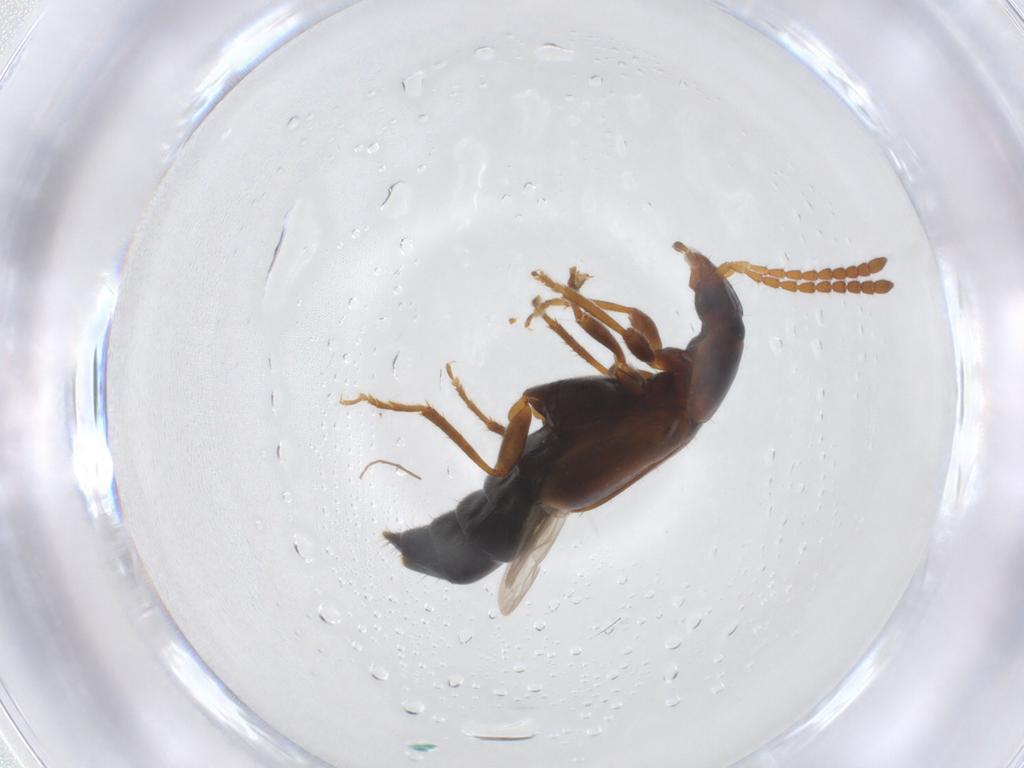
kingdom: Animalia
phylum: Arthropoda
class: Insecta
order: Coleoptera
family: Staphylinidae
